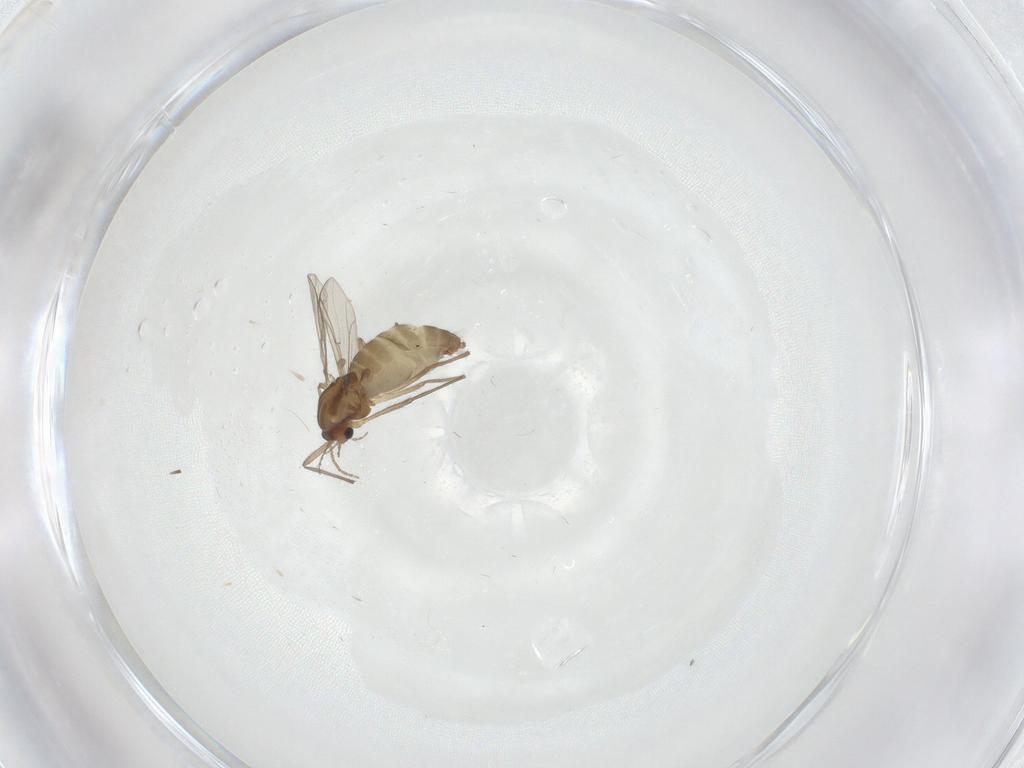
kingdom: Animalia
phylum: Arthropoda
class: Insecta
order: Diptera
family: Chironomidae
